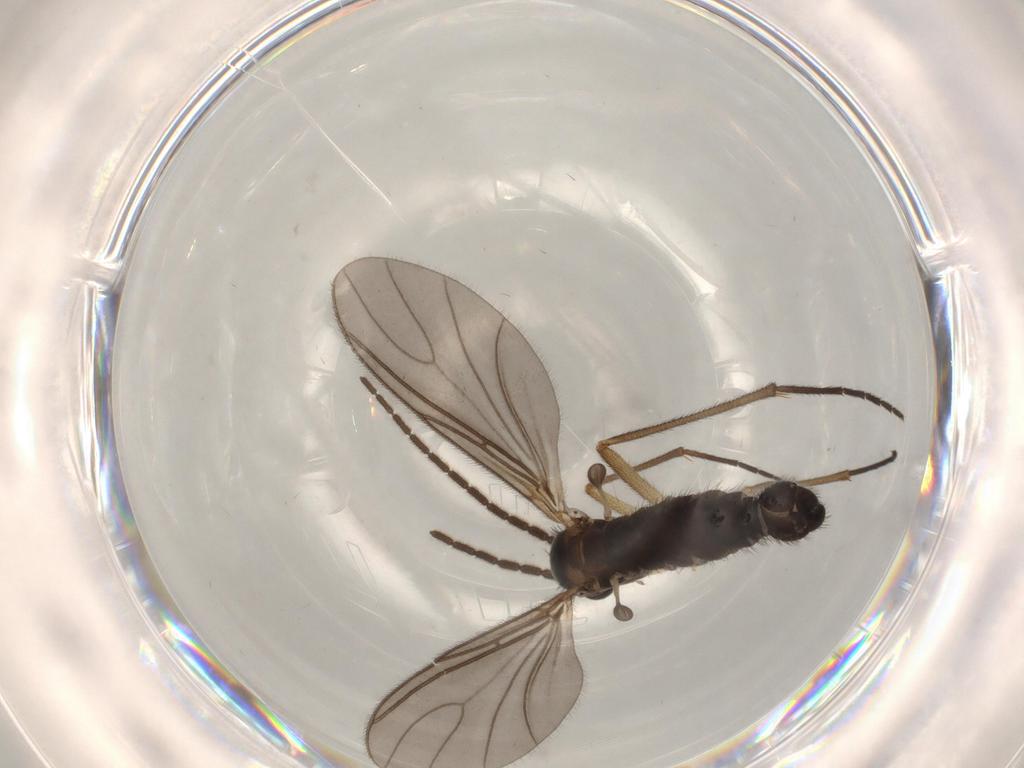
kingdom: Animalia
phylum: Arthropoda
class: Insecta
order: Diptera
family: Sciaridae
